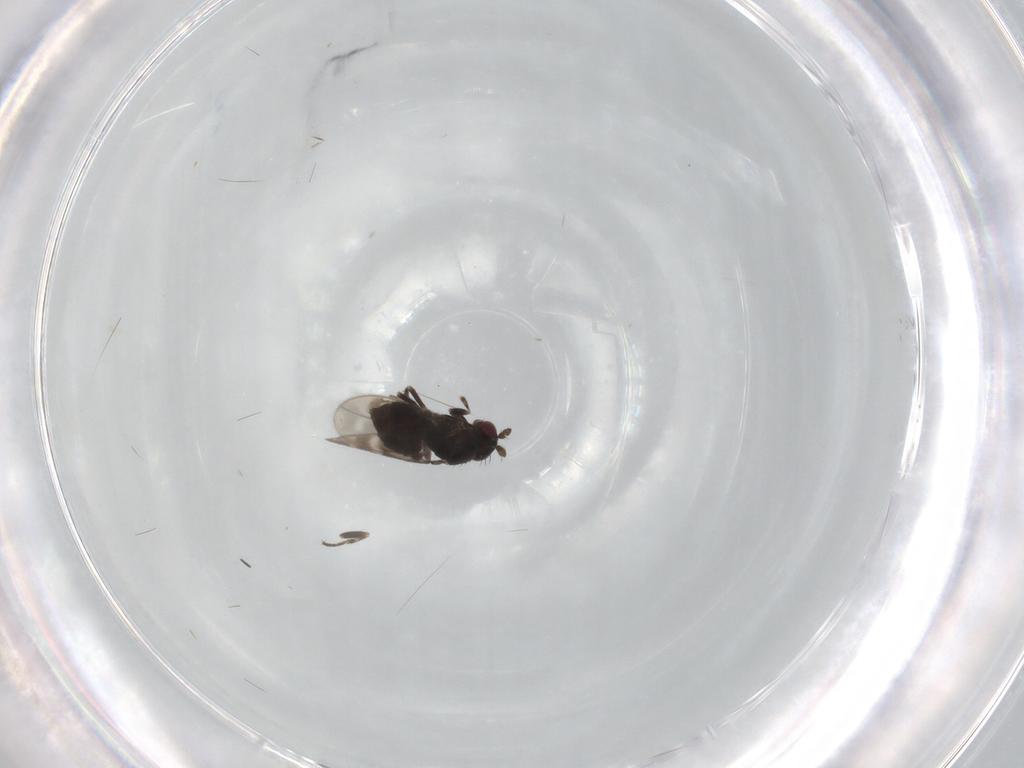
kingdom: Animalia
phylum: Arthropoda
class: Insecta
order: Diptera
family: Sphaeroceridae
